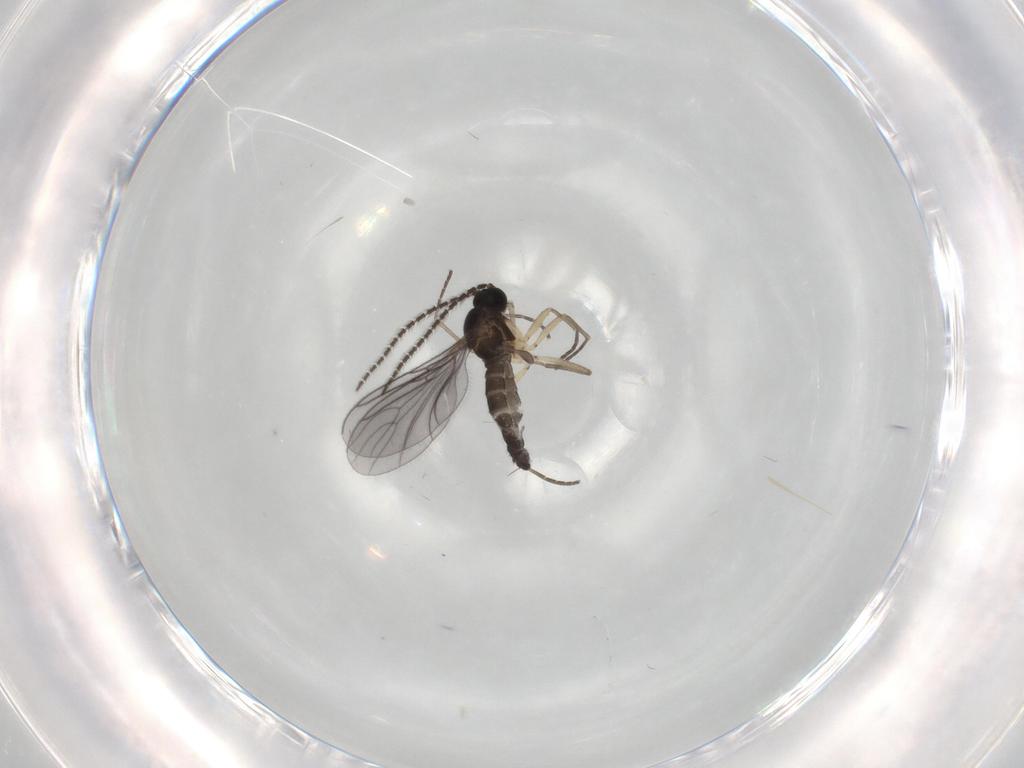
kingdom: Animalia
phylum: Arthropoda
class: Insecta
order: Diptera
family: Sciaridae
